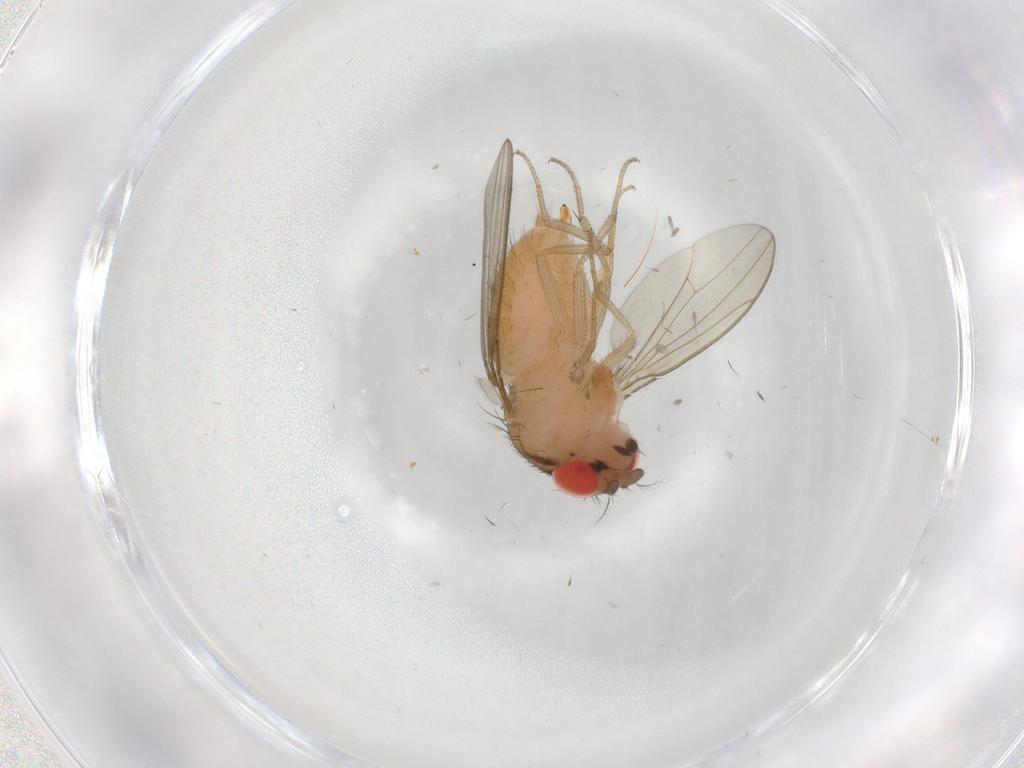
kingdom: Animalia
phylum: Arthropoda
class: Insecta
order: Diptera
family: Drosophilidae
